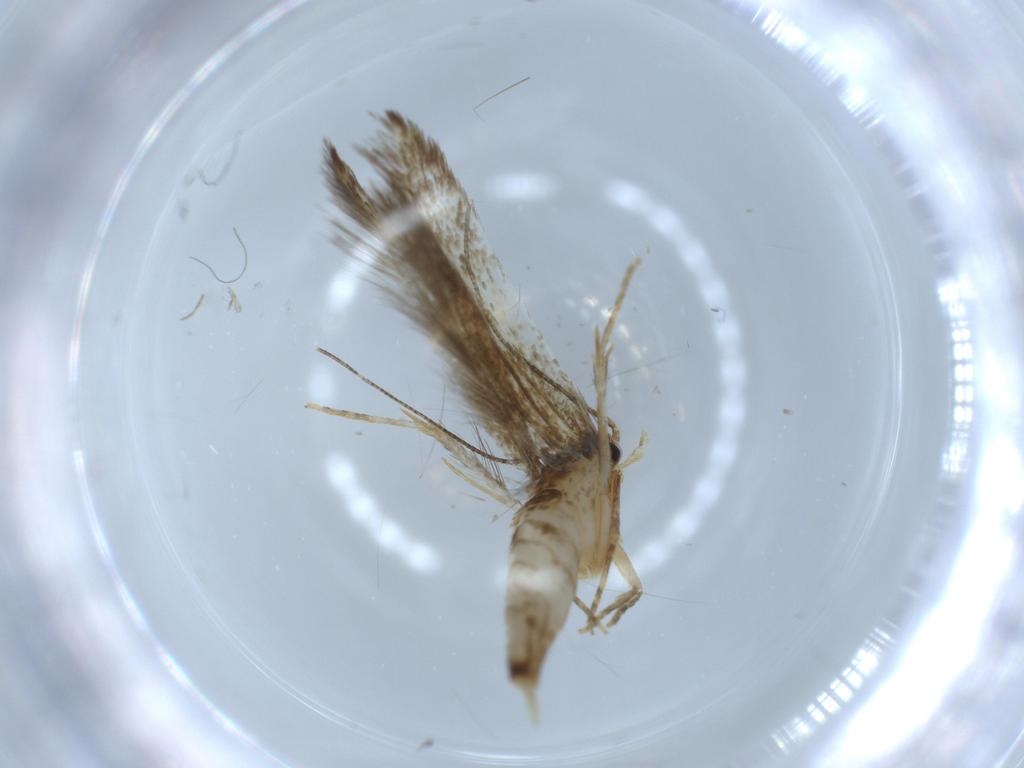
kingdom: Animalia
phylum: Arthropoda
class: Insecta
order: Lepidoptera
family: Tineidae
